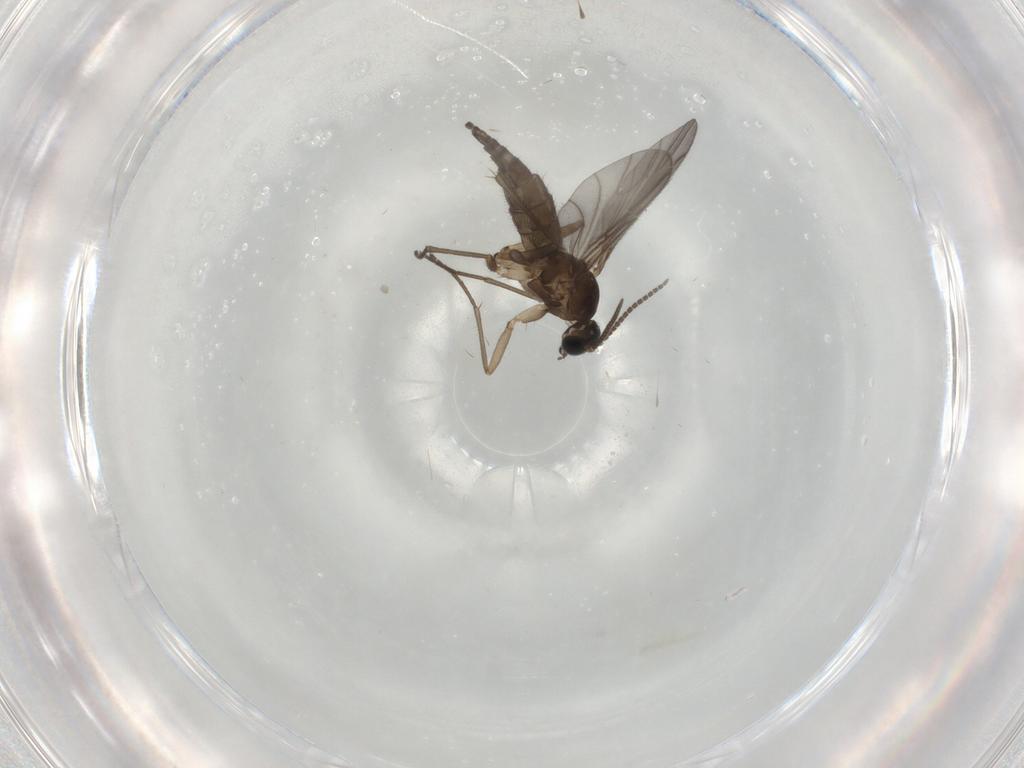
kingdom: Animalia
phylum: Arthropoda
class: Insecta
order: Diptera
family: Sciaridae
